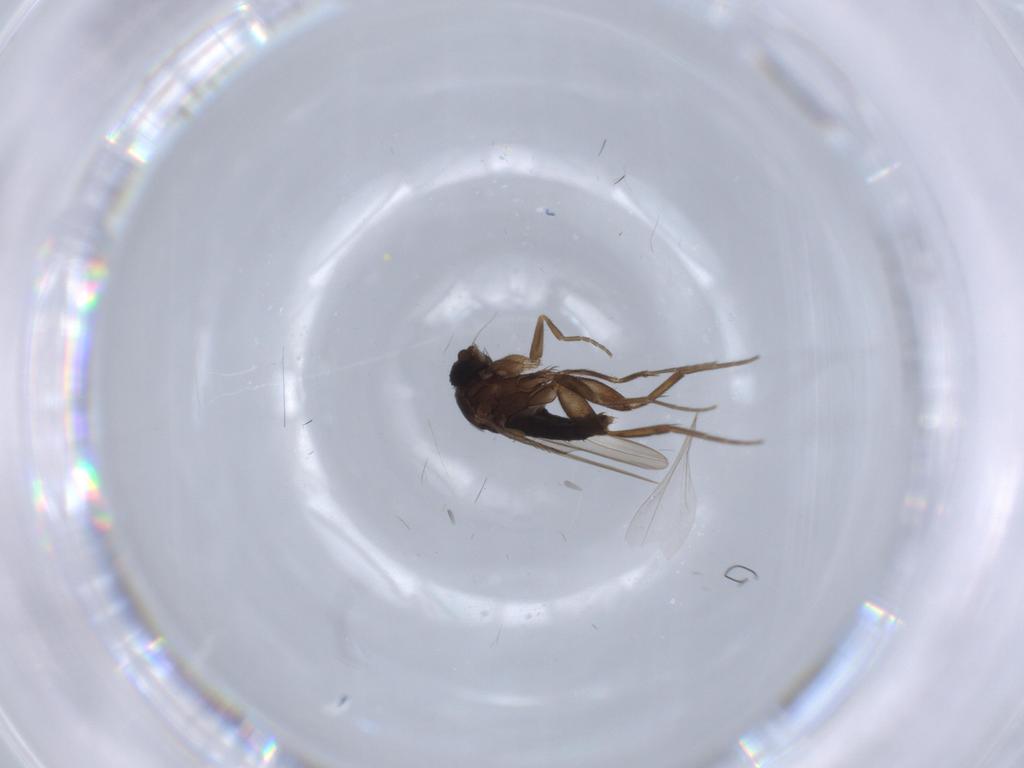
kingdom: Animalia
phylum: Arthropoda
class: Insecta
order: Diptera
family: Phoridae
